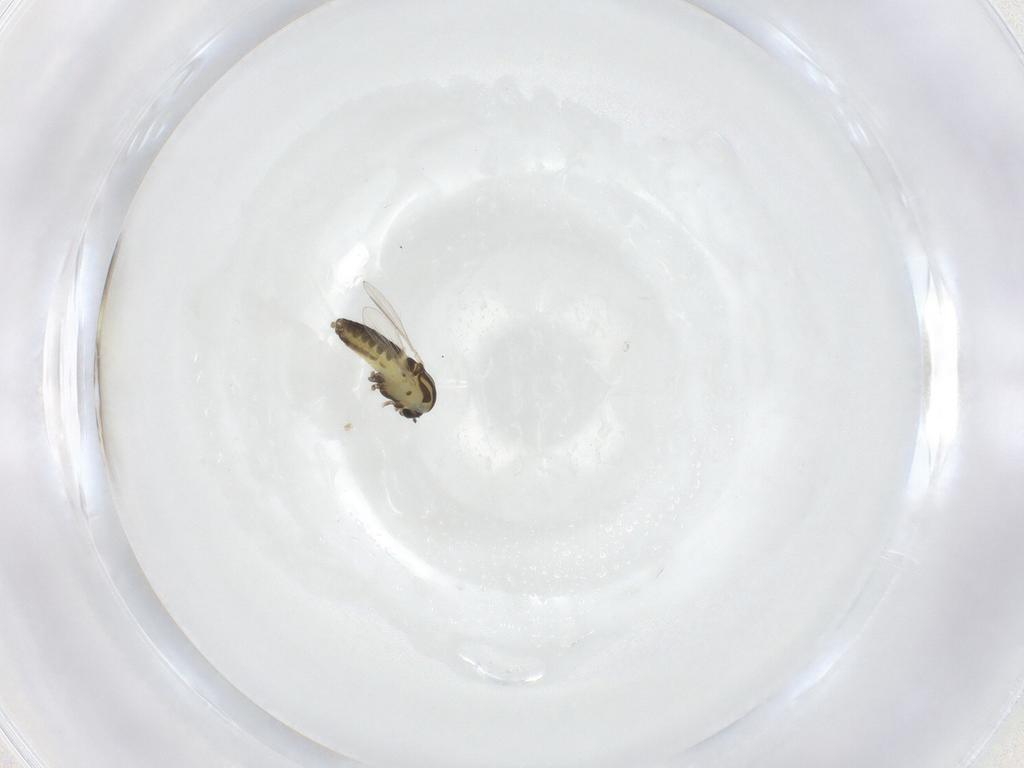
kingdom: Animalia
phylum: Arthropoda
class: Insecta
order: Diptera
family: Chironomidae
